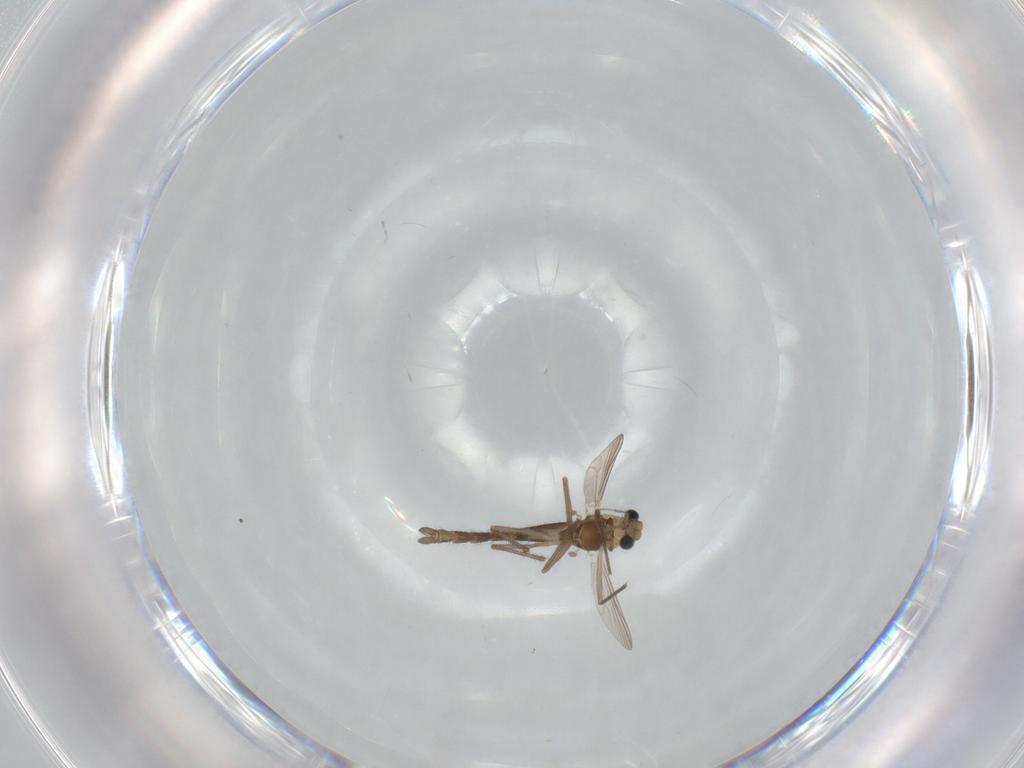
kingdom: Animalia
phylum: Arthropoda
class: Insecta
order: Diptera
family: Chironomidae
